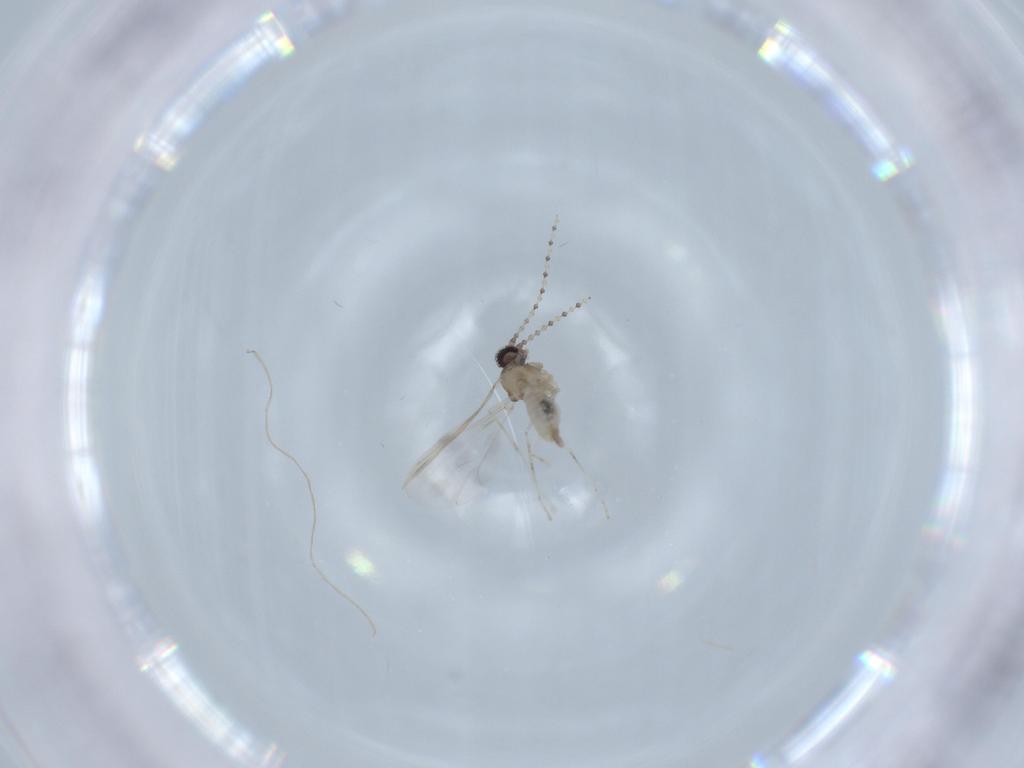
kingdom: Animalia
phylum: Arthropoda
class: Insecta
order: Diptera
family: Cecidomyiidae
